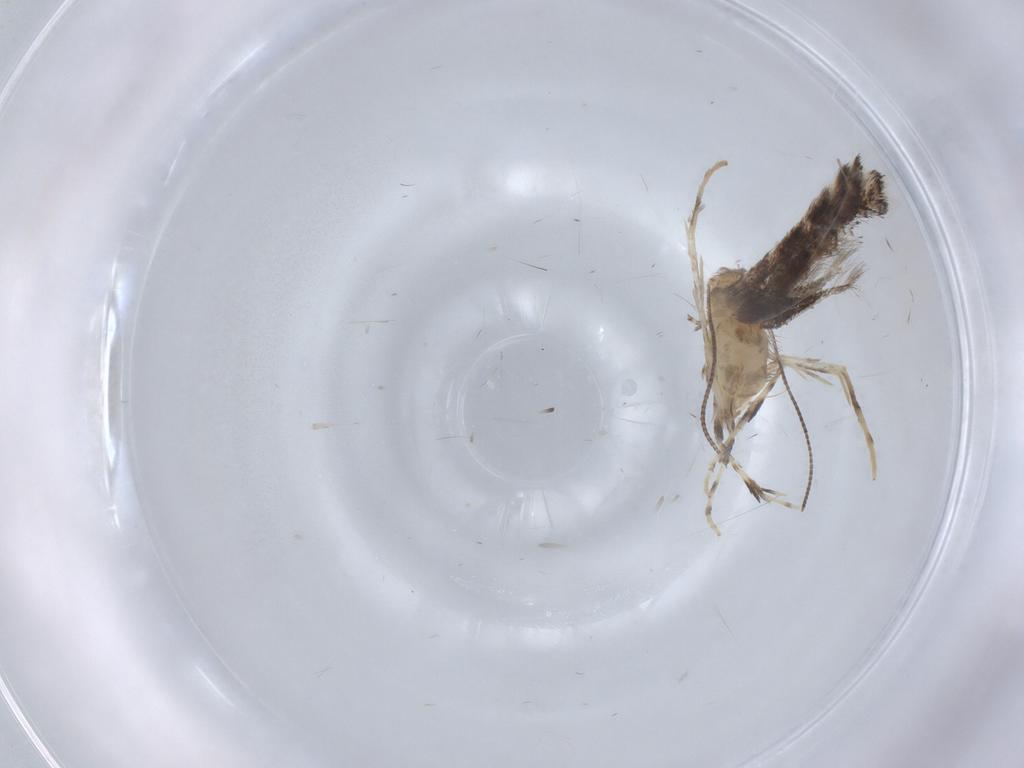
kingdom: Animalia
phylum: Arthropoda
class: Insecta
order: Lepidoptera
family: Gracillariidae
